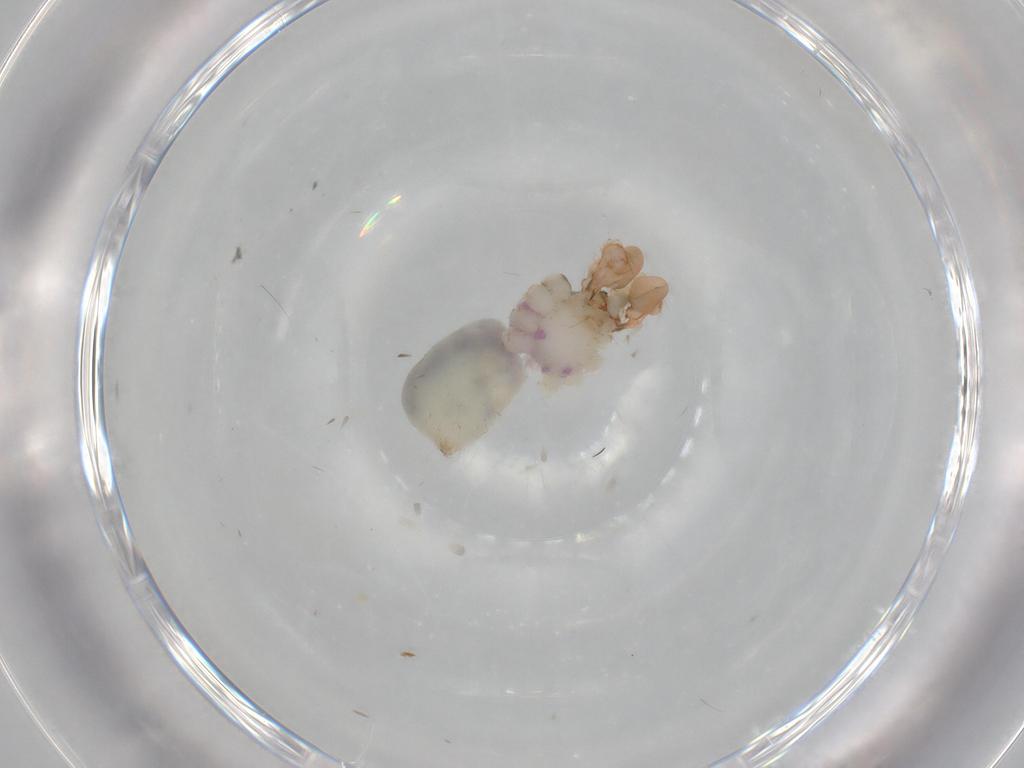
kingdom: Animalia
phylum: Arthropoda
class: Arachnida
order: Araneae
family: Pholcidae
